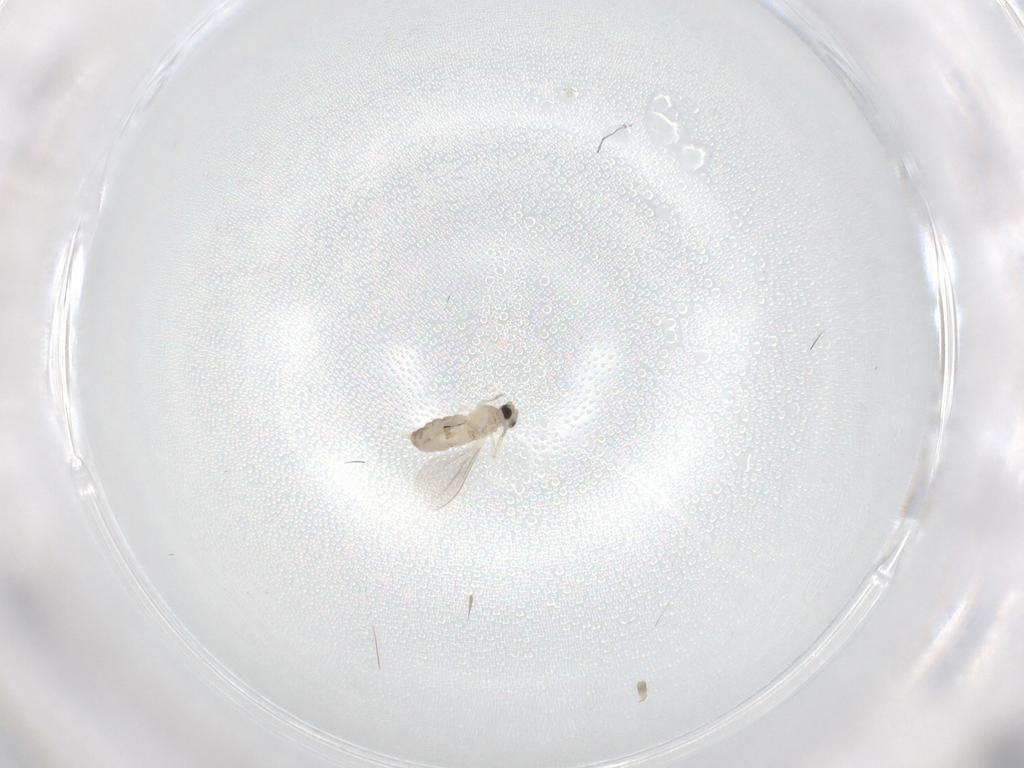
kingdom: Animalia
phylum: Arthropoda
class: Insecta
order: Diptera
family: Cecidomyiidae
